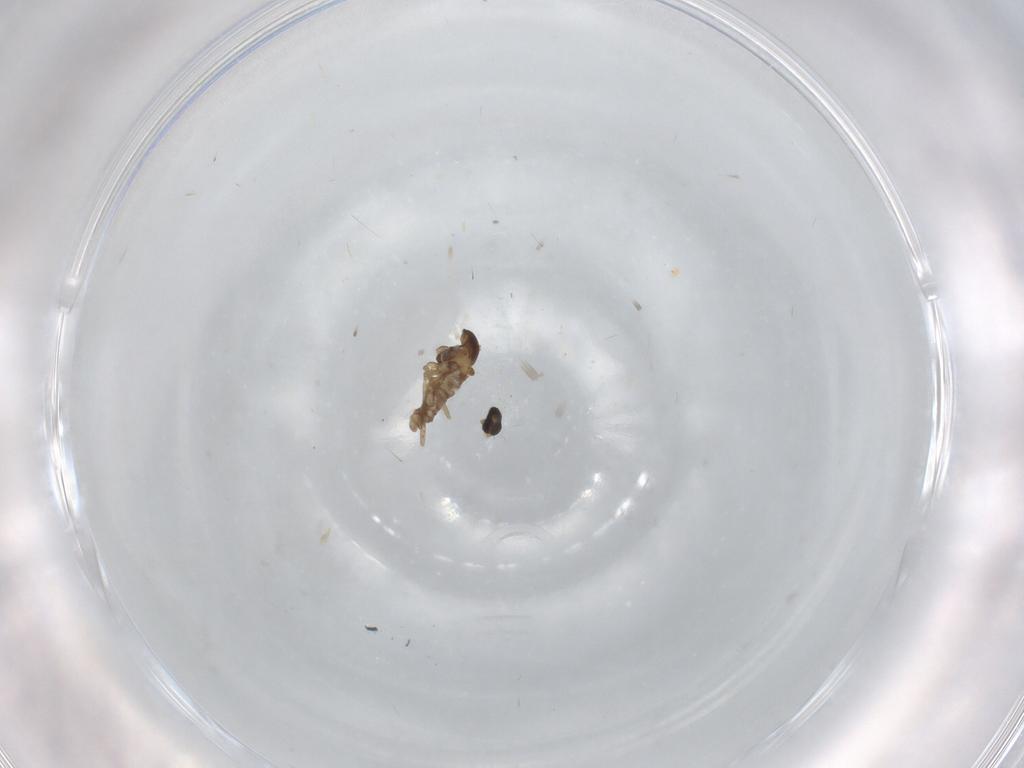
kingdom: Animalia
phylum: Arthropoda
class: Insecta
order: Diptera
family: Cecidomyiidae
